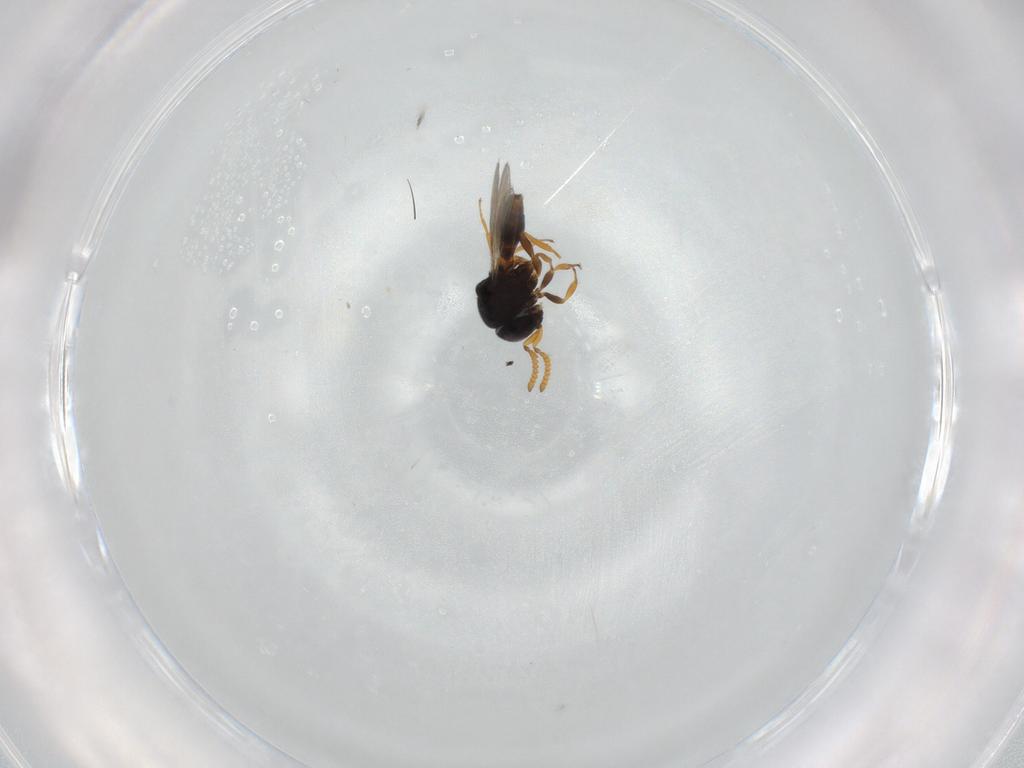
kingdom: Animalia
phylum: Arthropoda
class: Insecta
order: Hymenoptera
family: Scelionidae
